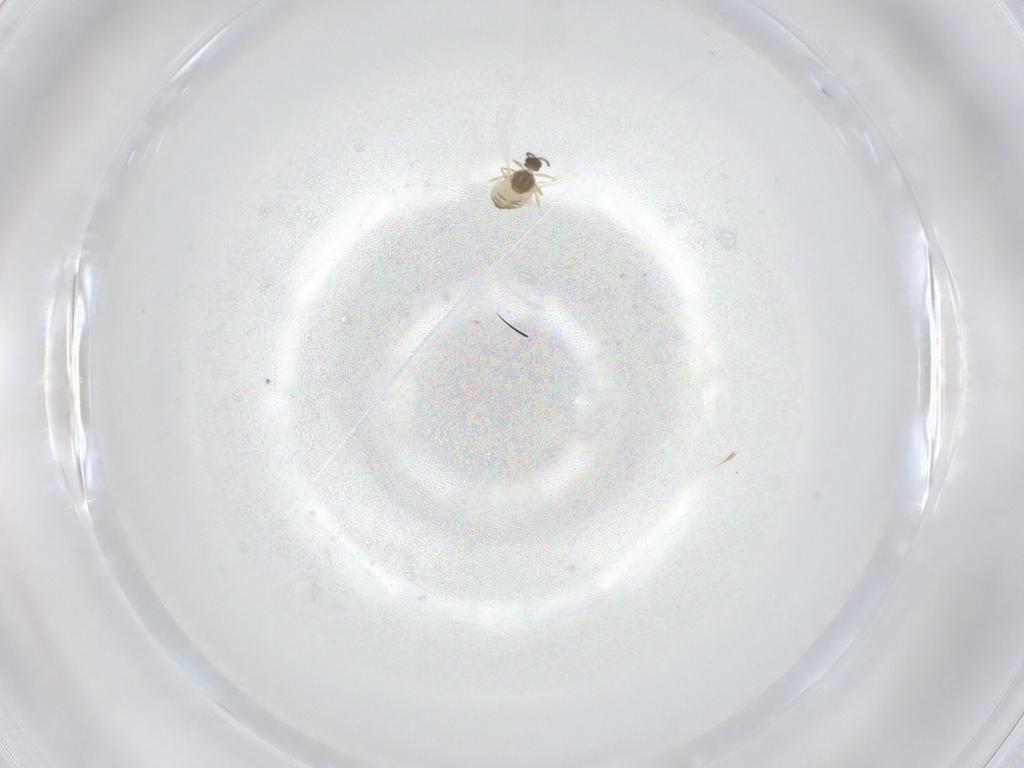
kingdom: Animalia
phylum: Arthropoda
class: Insecta
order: Diptera
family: Cecidomyiidae
